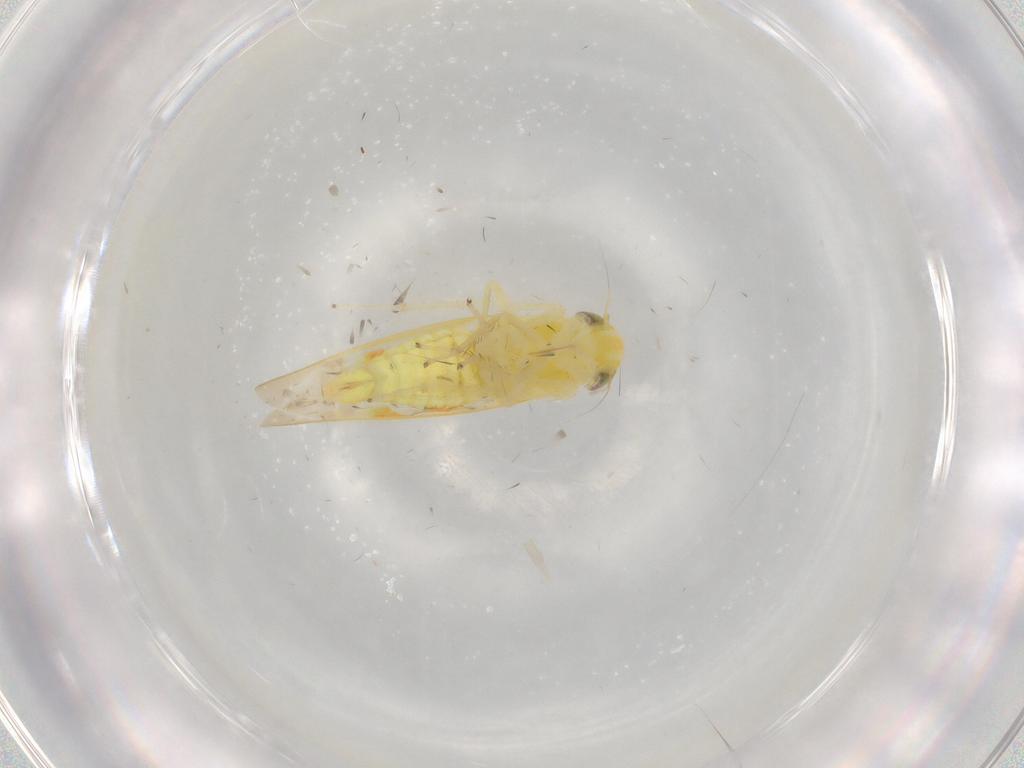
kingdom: Animalia
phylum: Arthropoda
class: Insecta
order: Hemiptera
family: Cicadellidae
